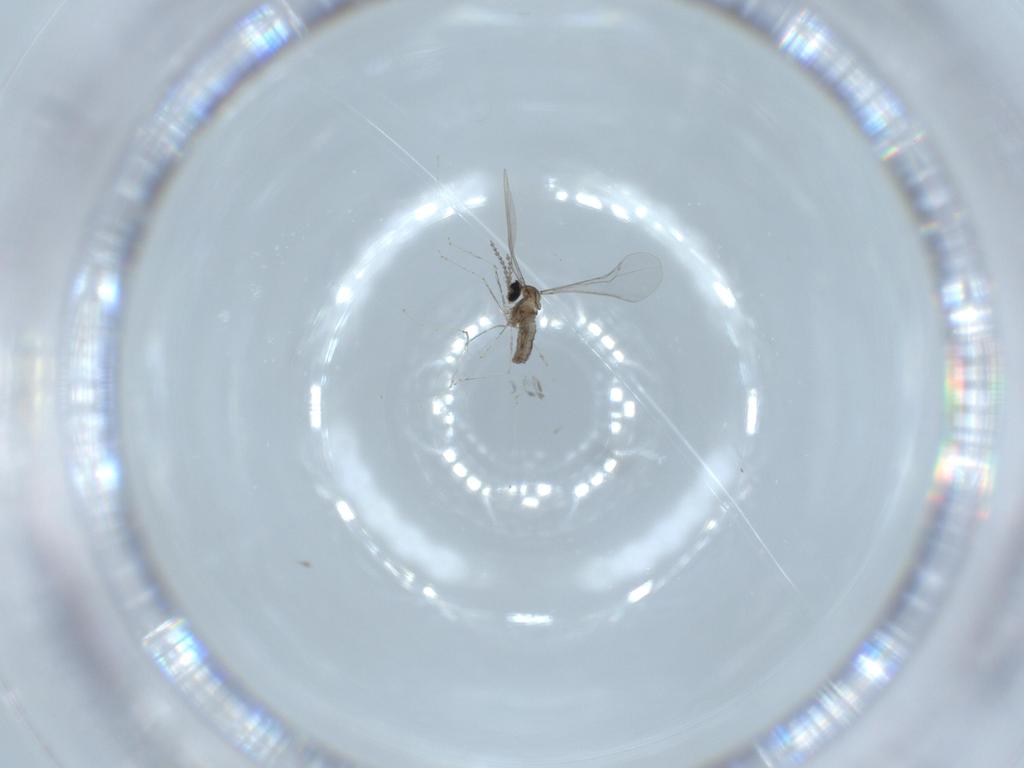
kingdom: Animalia
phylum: Arthropoda
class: Insecta
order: Diptera
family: Cecidomyiidae
